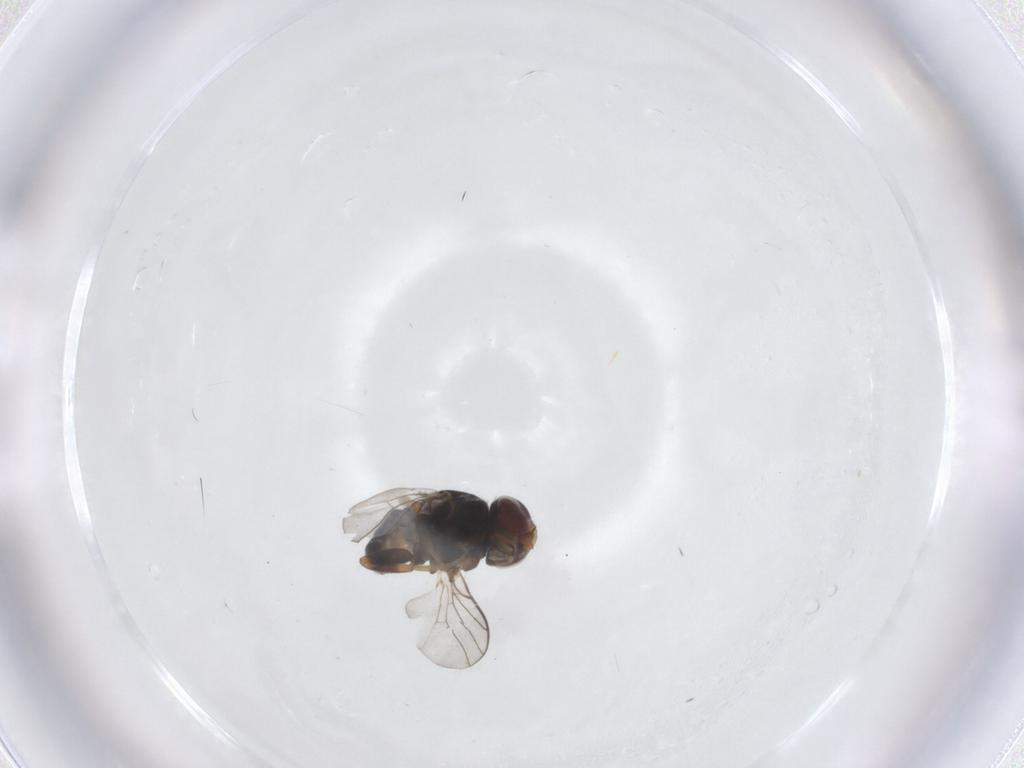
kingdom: Animalia
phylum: Arthropoda
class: Insecta
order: Diptera
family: Chloropidae
